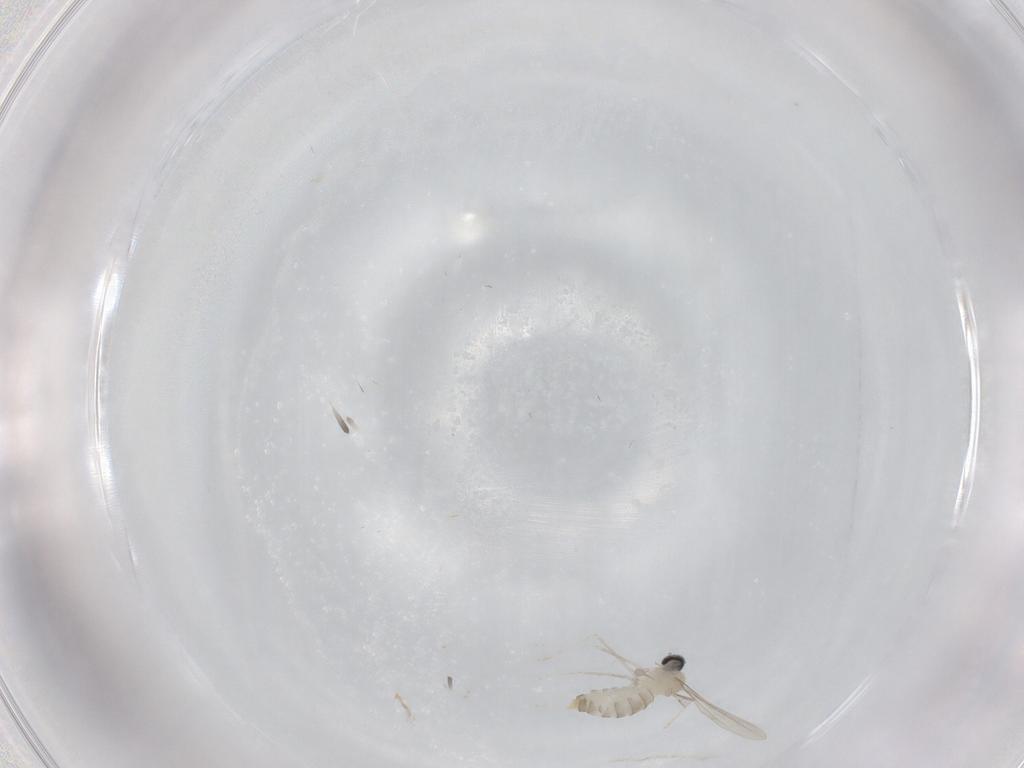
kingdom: Animalia
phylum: Arthropoda
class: Insecta
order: Diptera
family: Cecidomyiidae
